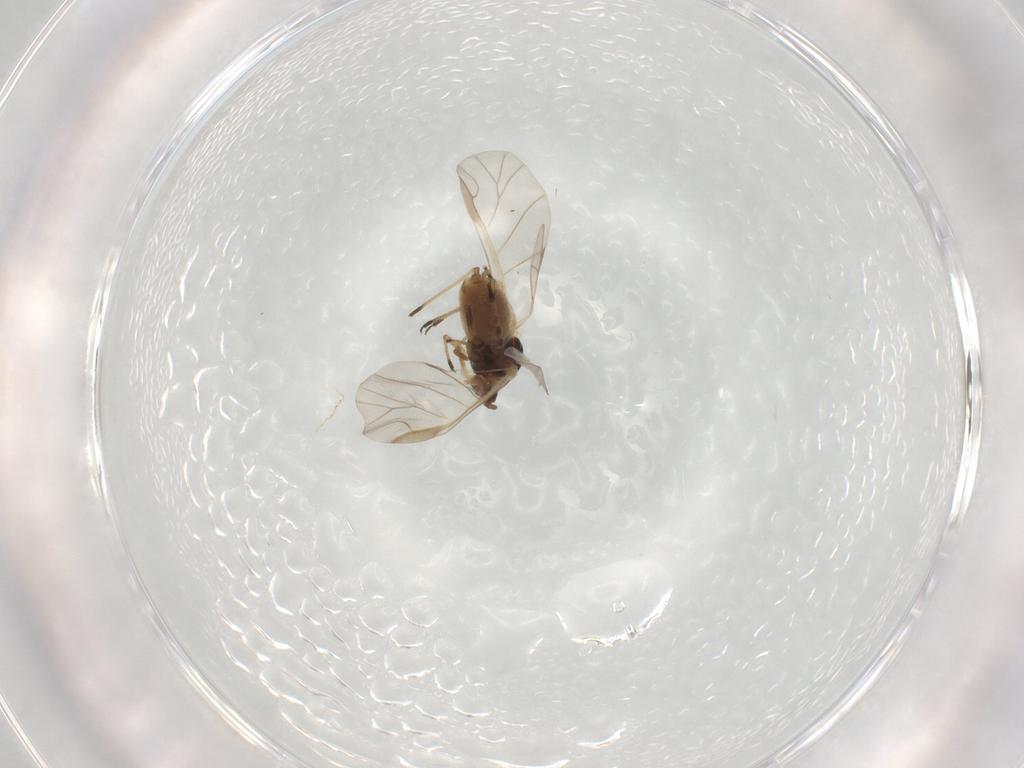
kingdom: Animalia
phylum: Arthropoda
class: Insecta
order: Hemiptera
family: Aphididae
